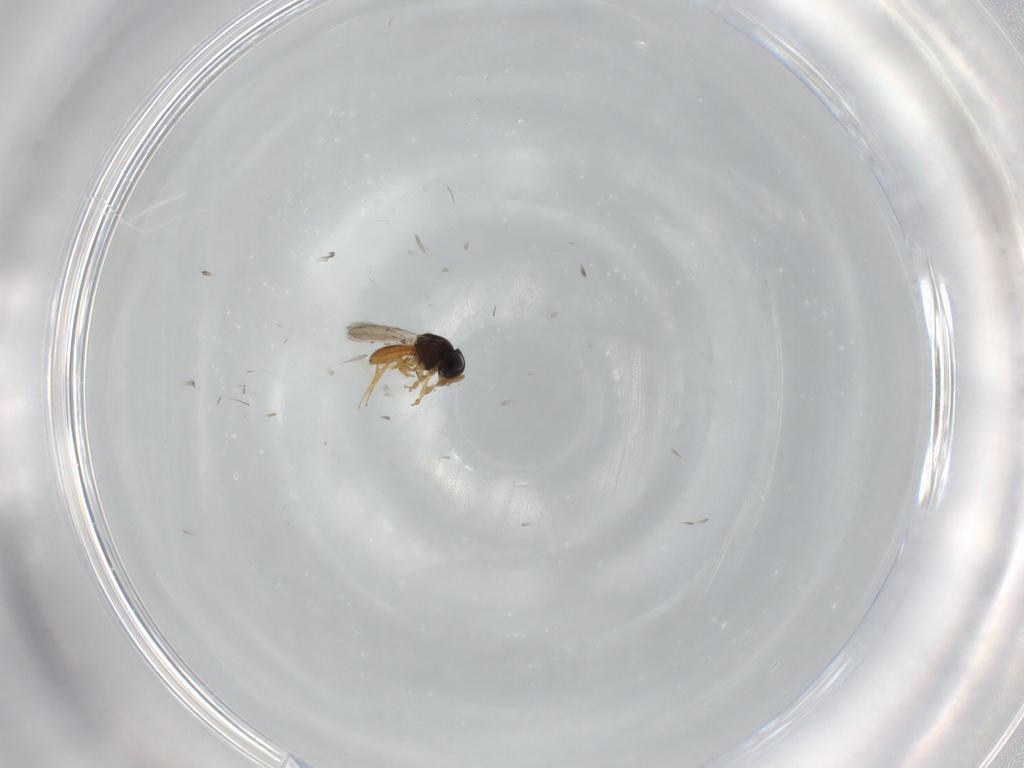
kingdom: Animalia
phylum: Arthropoda
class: Insecta
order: Hymenoptera
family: Scelionidae
